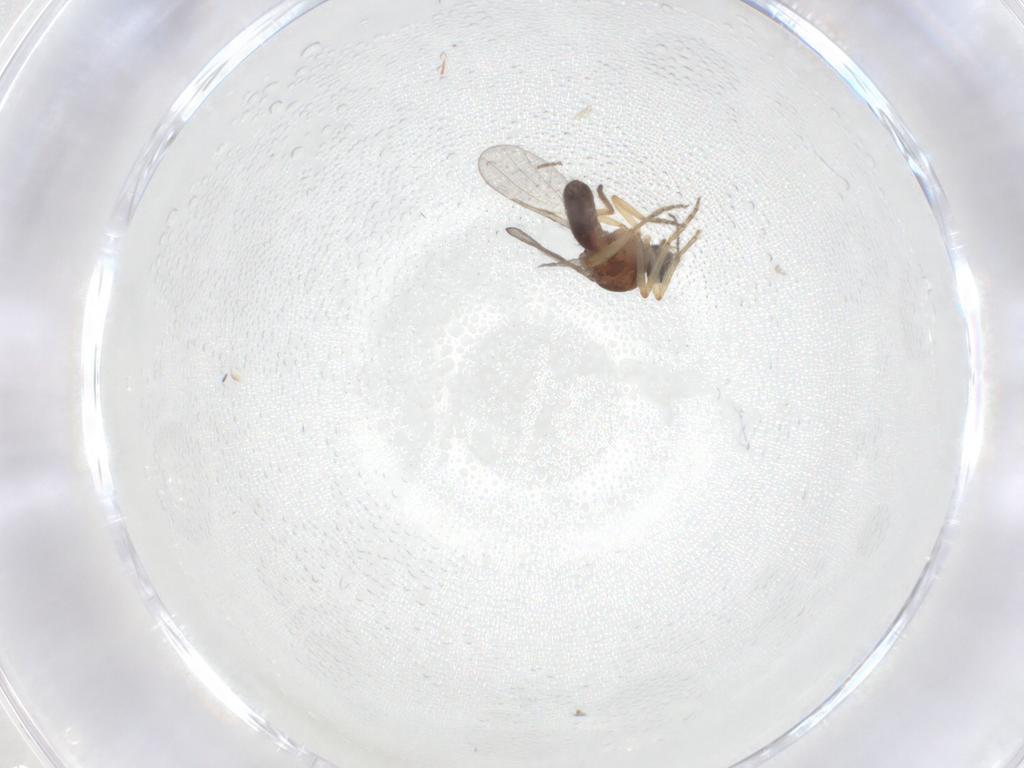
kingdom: Animalia
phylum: Arthropoda
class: Insecta
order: Diptera
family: Ceratopogonidae
